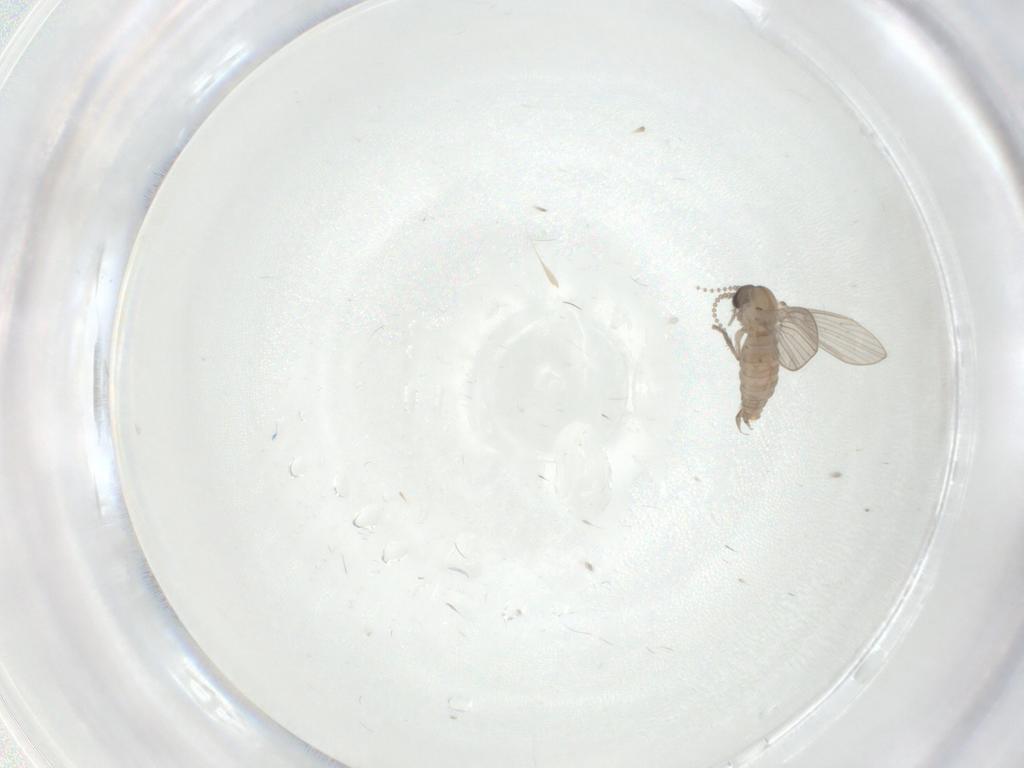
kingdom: Animalia
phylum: Arthropoda
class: Insecta
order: Diptera
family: Psychodidae
